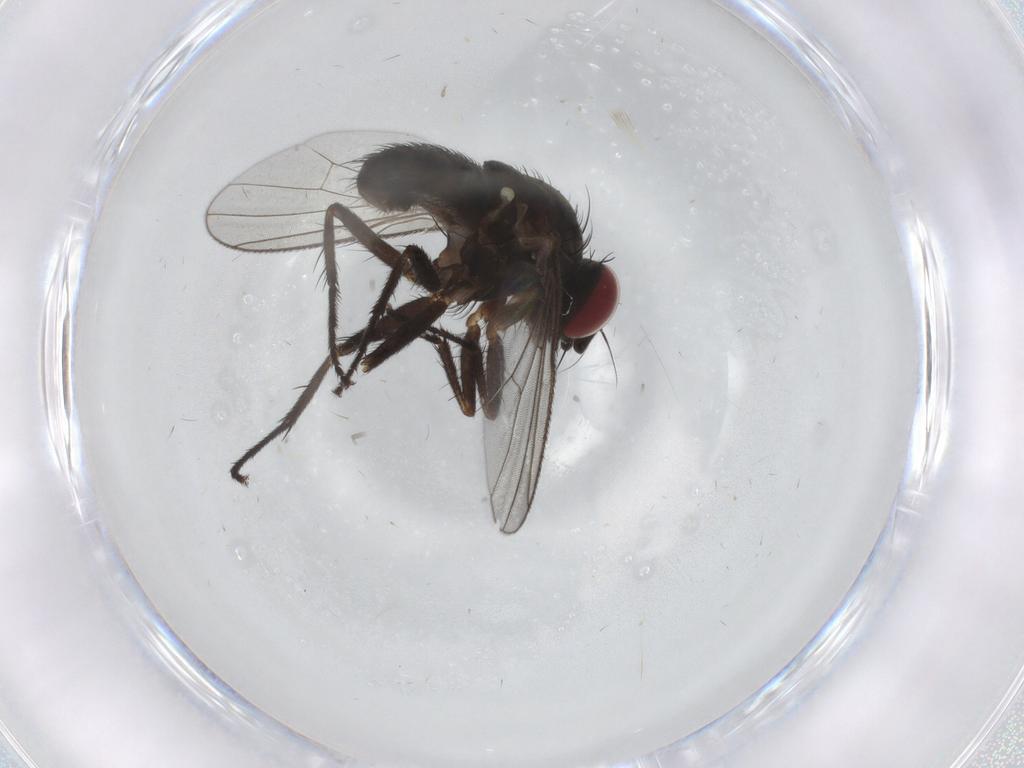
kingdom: Animalia
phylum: Arthropoda
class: Insecta
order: Diptera
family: Muscidae
